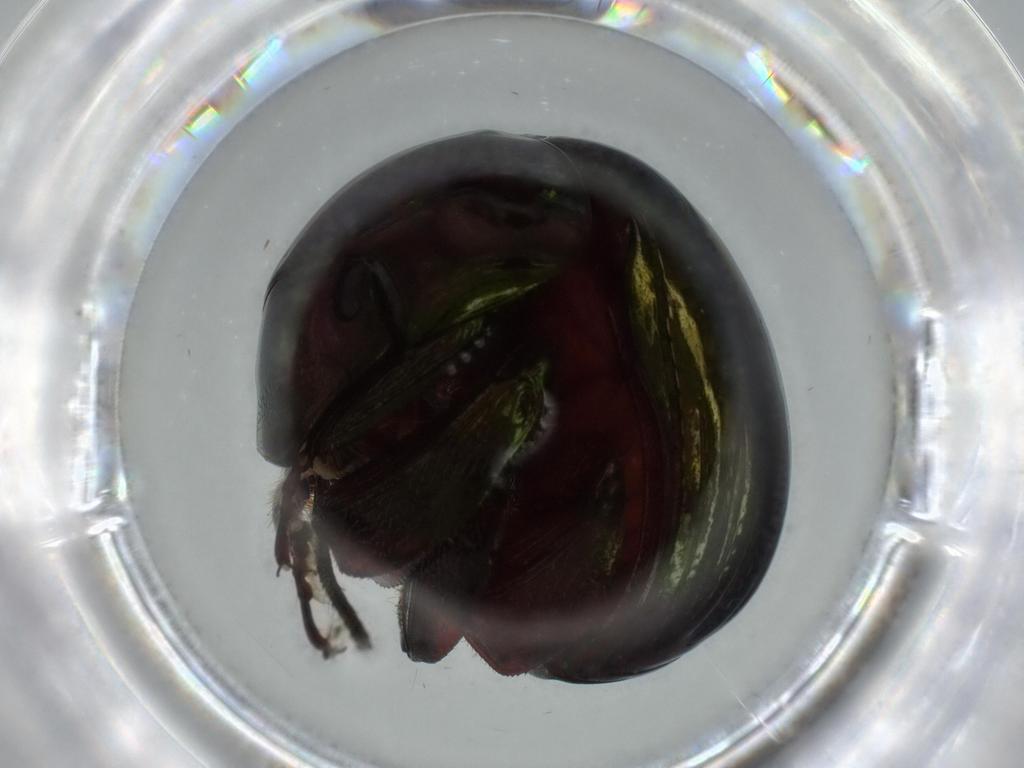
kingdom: Animalia
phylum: Arthropoda
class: Insecta
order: Coleoptera
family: Hybosoridae
